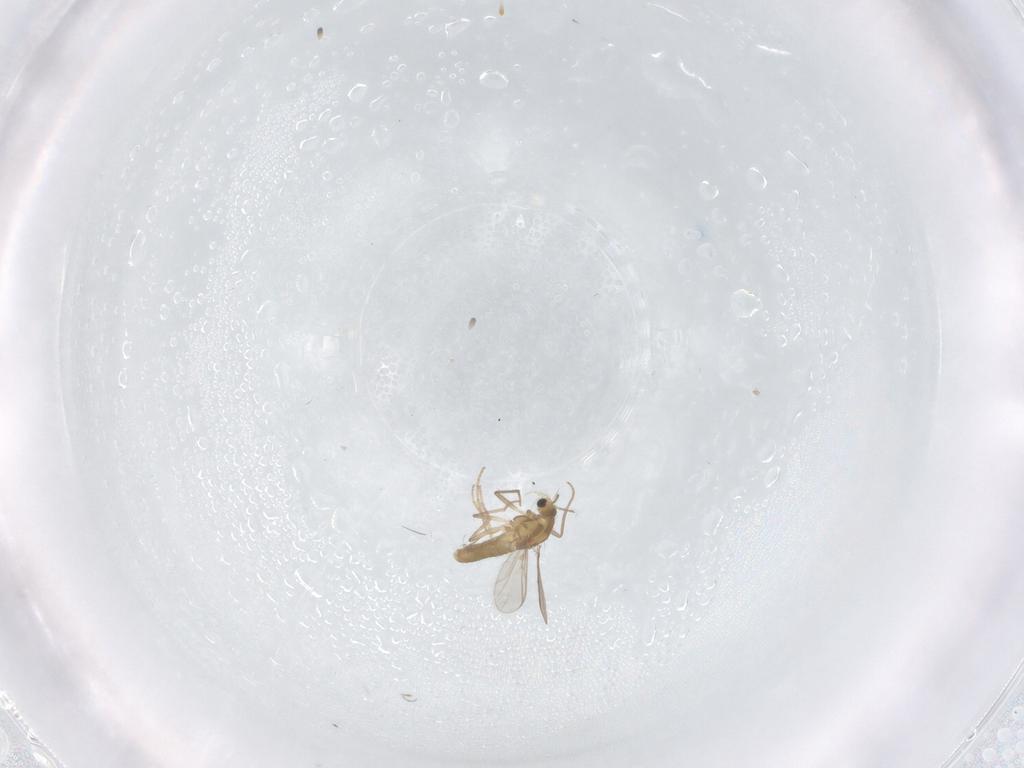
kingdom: Animalia
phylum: Arthropoda
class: Insecta
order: Diptera
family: Chironomidae
